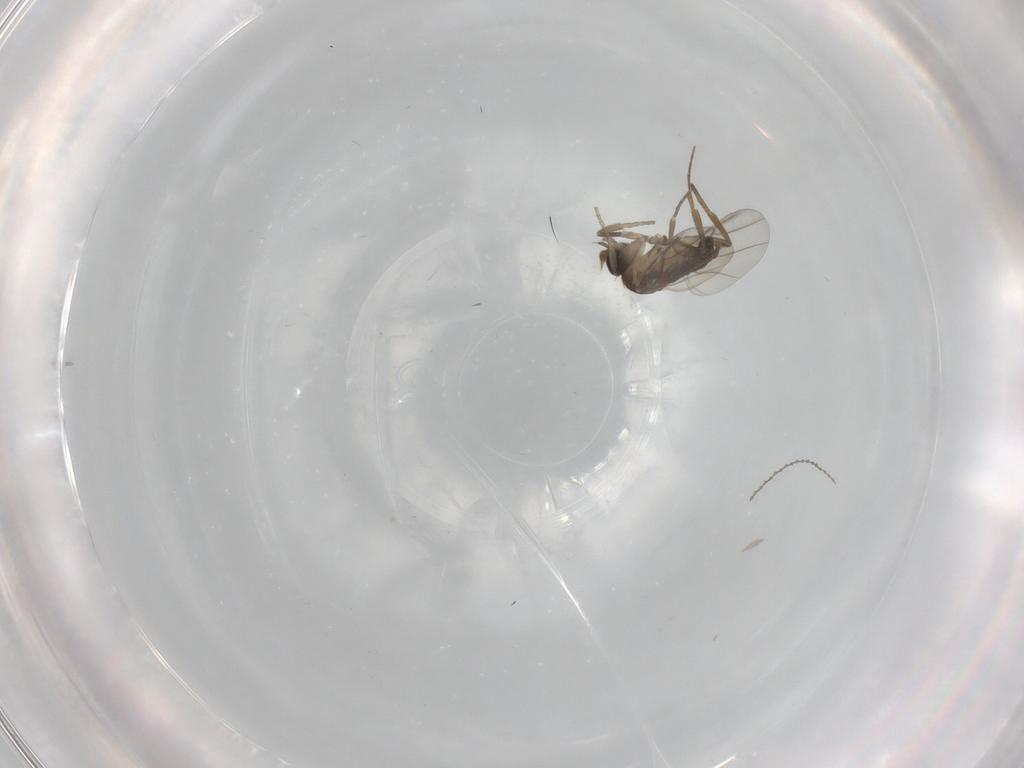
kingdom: Animalia
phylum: Arthropoda
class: Insecta
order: Diptera
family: Phoridae
